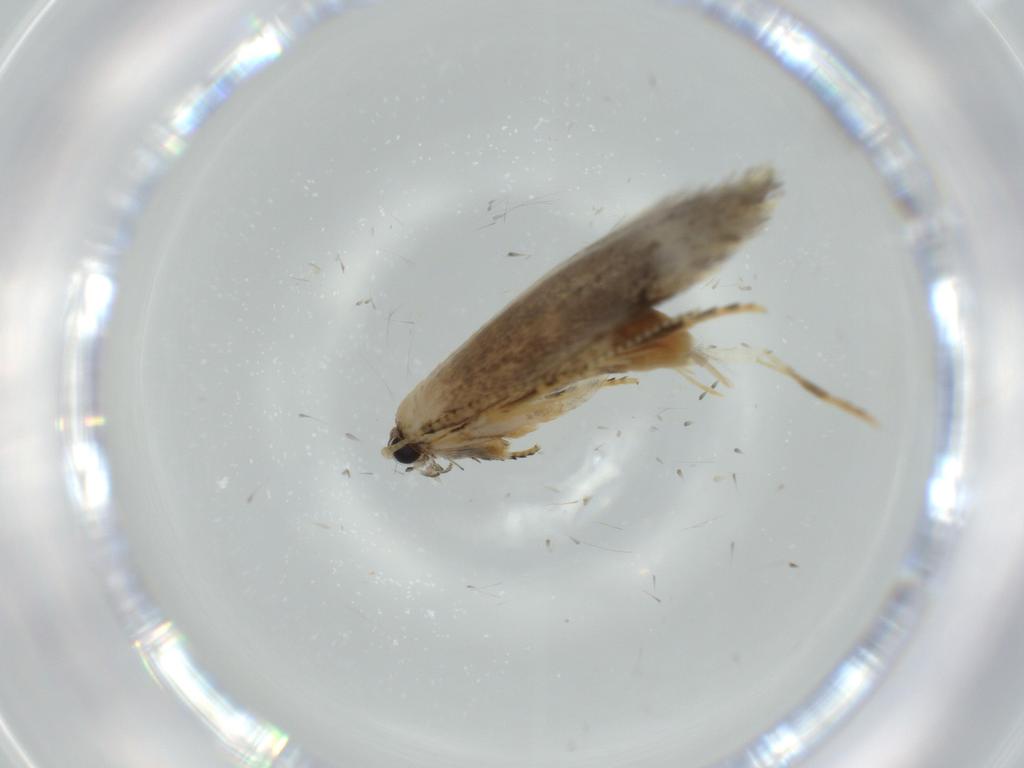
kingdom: Animalia
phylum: Arthropoda
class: Insecta
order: Lepidoptera
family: Tineidae
